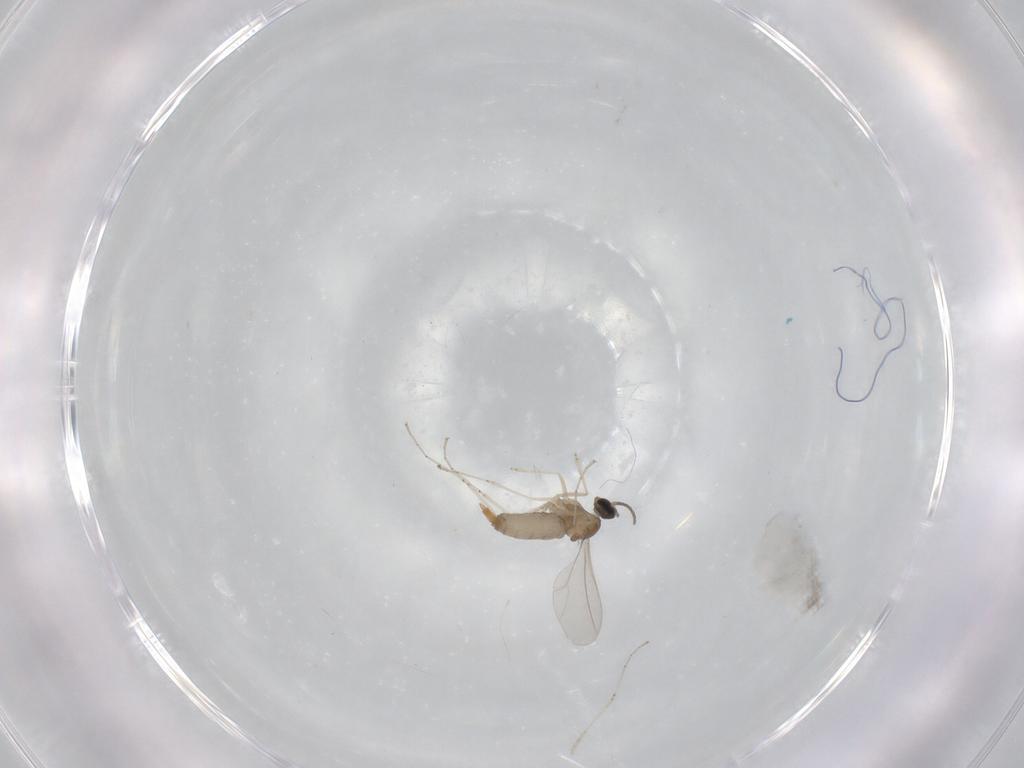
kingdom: Animalia
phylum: Arthropoda
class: Insecta
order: Diptera
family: Cecidomyiidae
